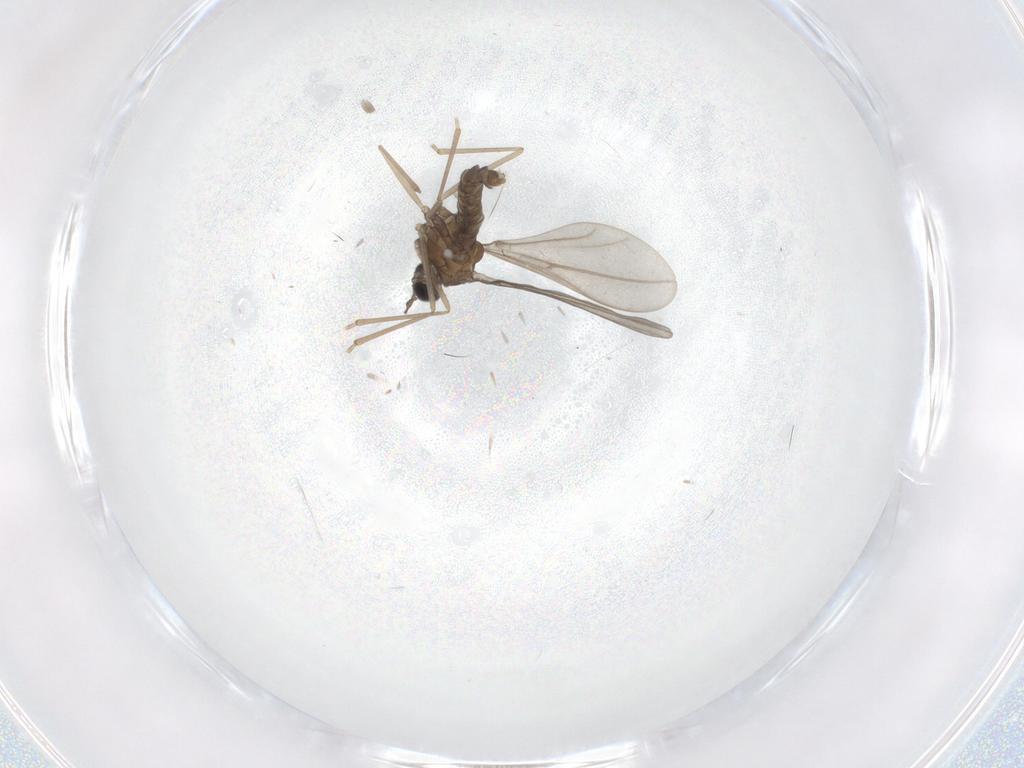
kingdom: Animalia
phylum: Arthropoda
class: Insecta
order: Diptera
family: Cecidomyiidae
